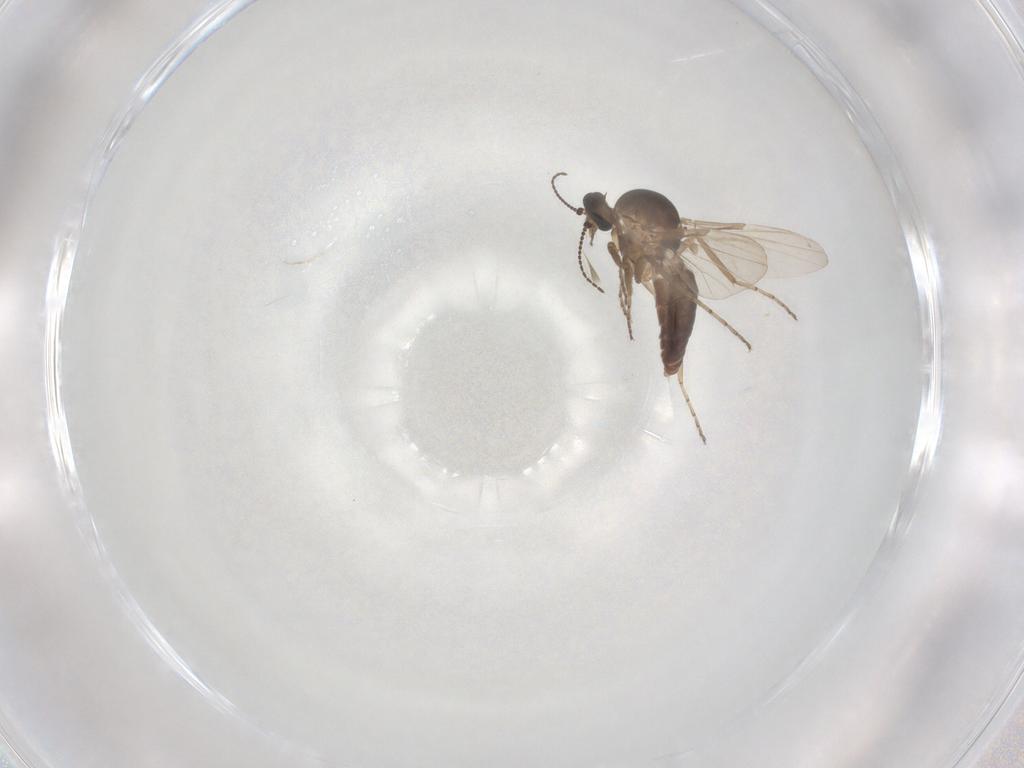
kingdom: Animalia
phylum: Arthropoda
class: Insecta
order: Diptera
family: Ceratopogonidae
